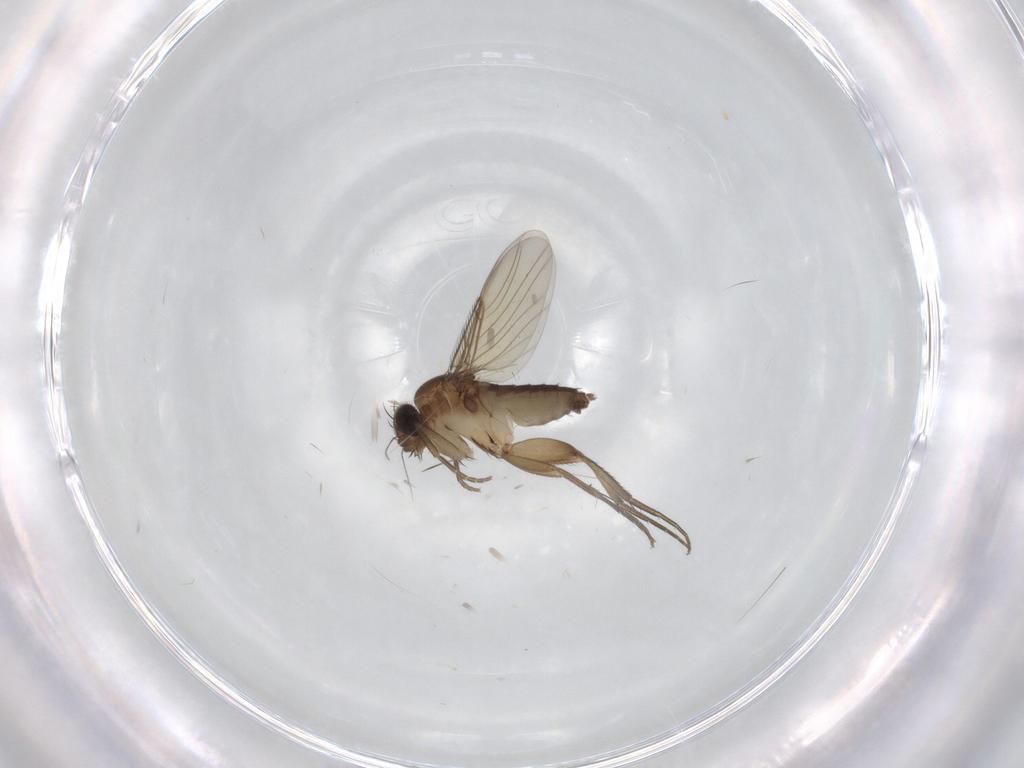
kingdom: Animalia
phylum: Arthropoda
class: Insecta
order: Diptera
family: Phoridae
